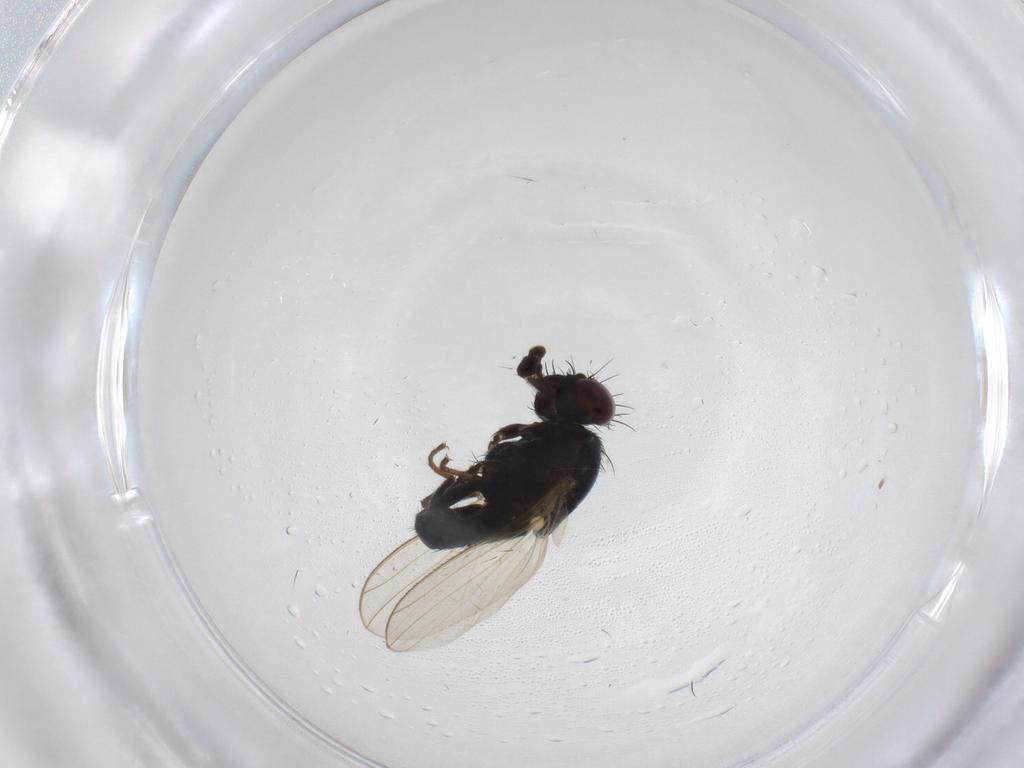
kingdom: Animalia
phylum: Arthropoda
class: Insecta
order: Diptera
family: Carnidae
